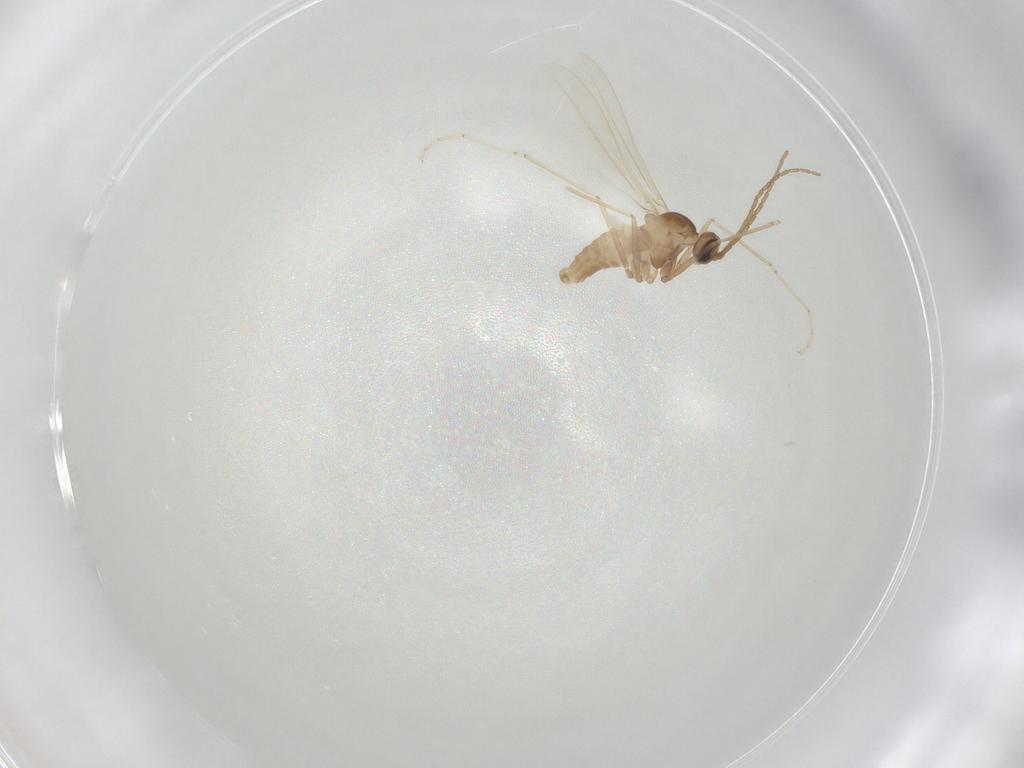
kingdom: Animalia
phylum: Arthropoda
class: Insecta
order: Diptera
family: Cecidomyiidae
